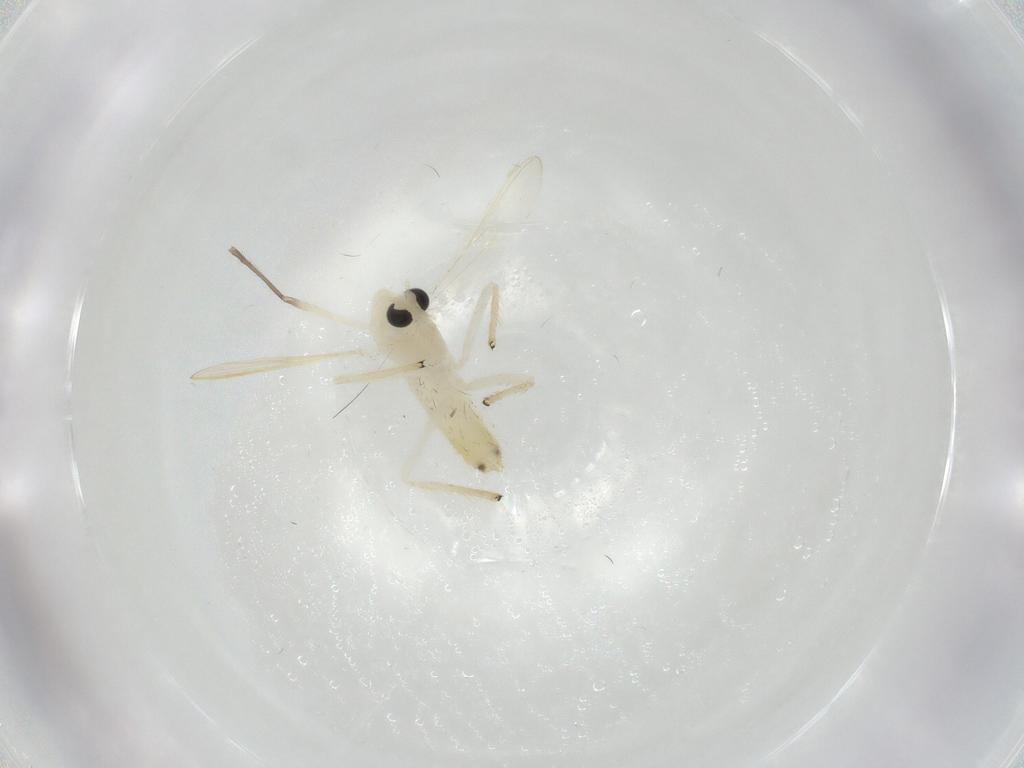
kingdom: Animalia
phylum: Arthropoda
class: Insecta
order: Diptera
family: Chironomidae
